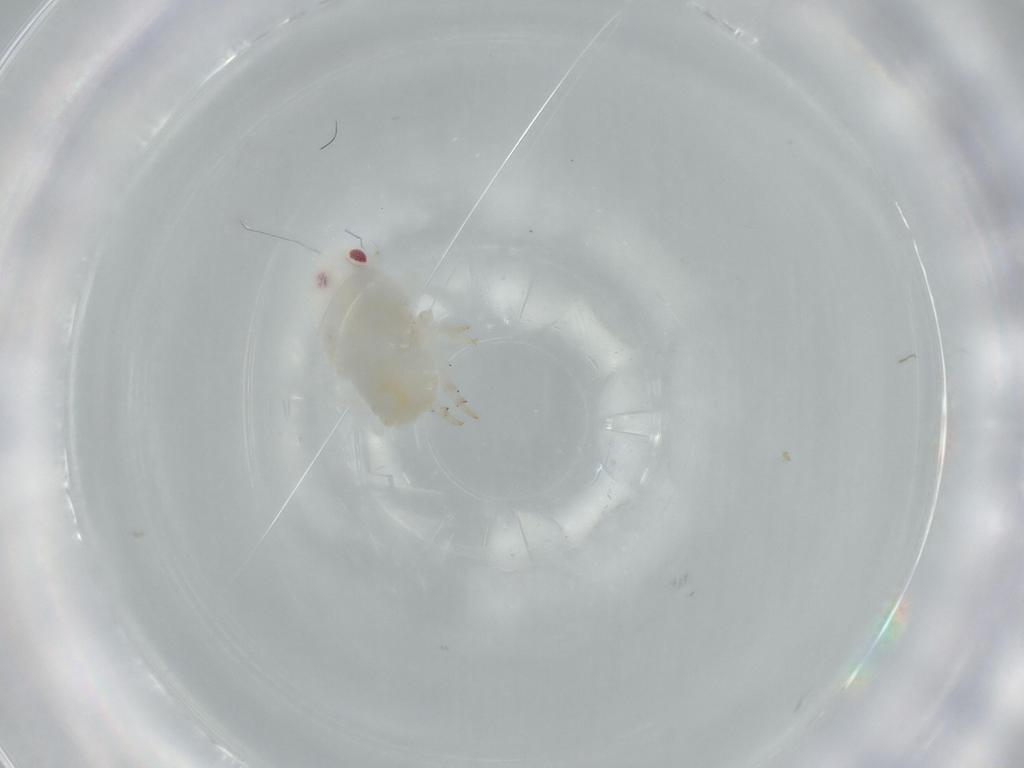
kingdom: Animalia
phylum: Arthropoda
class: Insecta
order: Hemiptera
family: Flatidae
